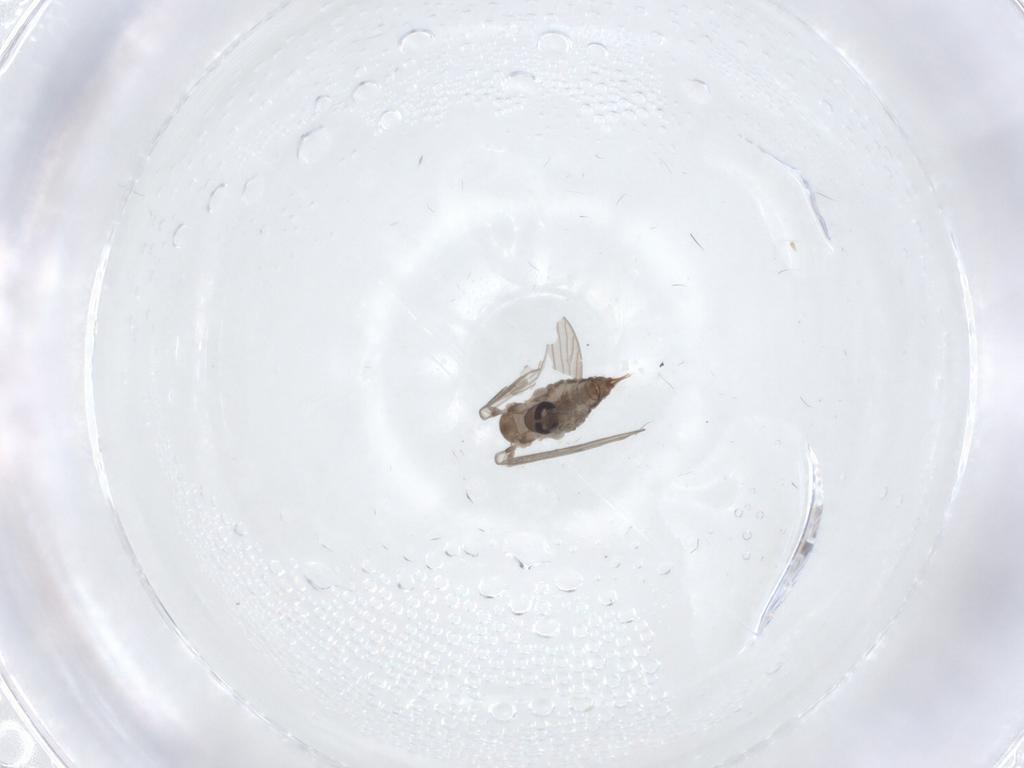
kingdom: Animalia
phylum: Arthropoda
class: Insecta
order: Diptera
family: Psychodidae
